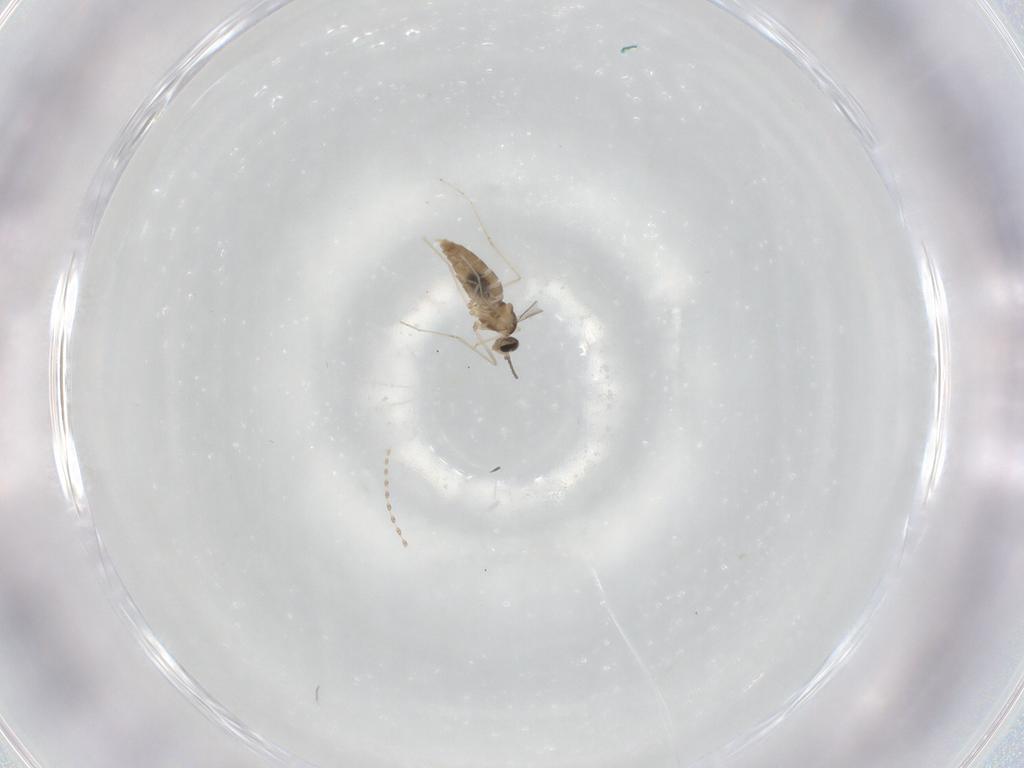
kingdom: Animalia
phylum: Arthropoda
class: Insecta
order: Diptera
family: Cecidomyiidae
